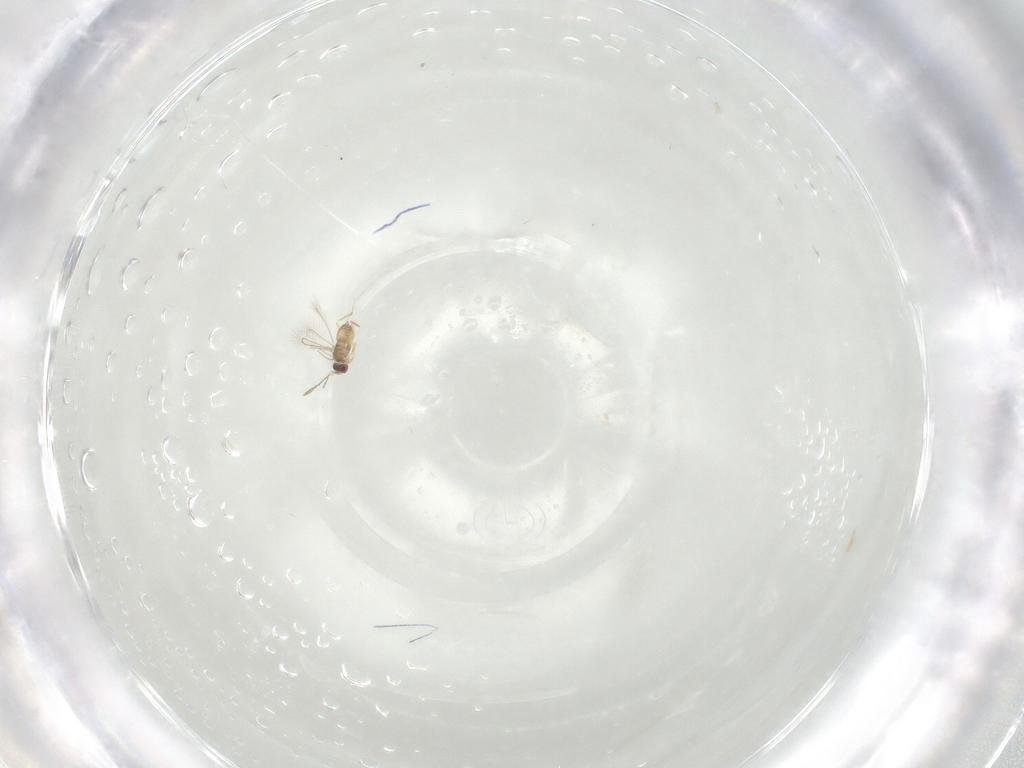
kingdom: Animalia
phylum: Arthropoda
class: Insecta
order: Hymenoptera
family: Mymaridae
